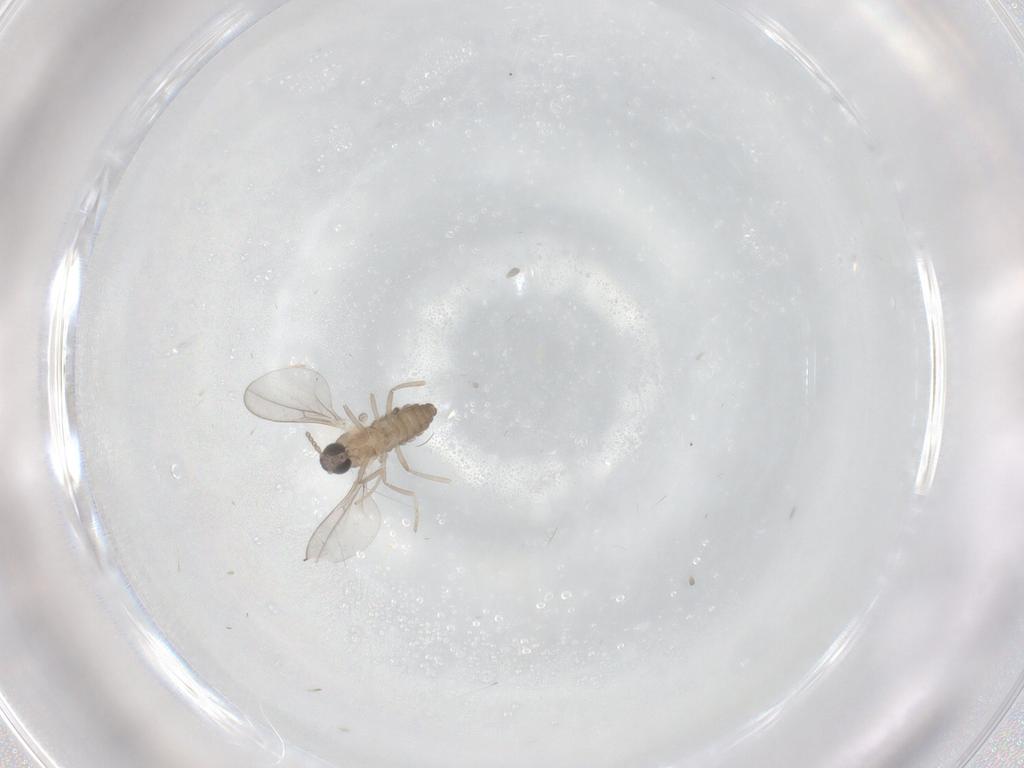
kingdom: Animalia
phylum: Arthropoda
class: Insecta
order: Diptera
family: Cecidomyiidae
